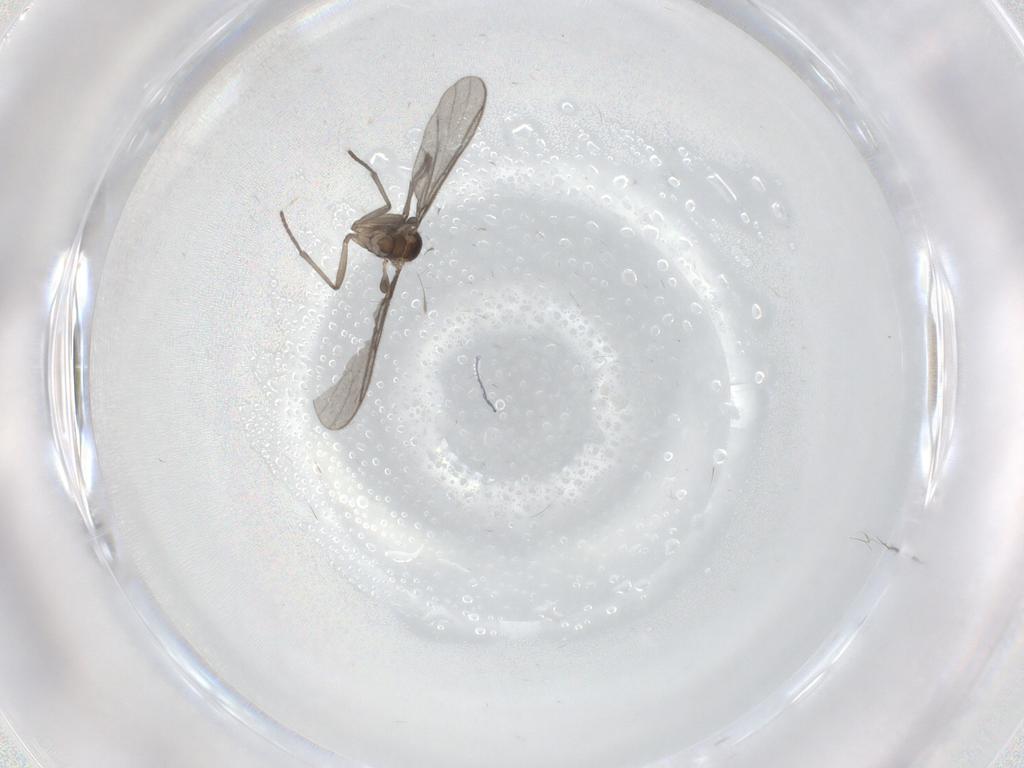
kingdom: Animalia
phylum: Arthropoda
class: Insecta
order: Diptera
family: Limoniidae
